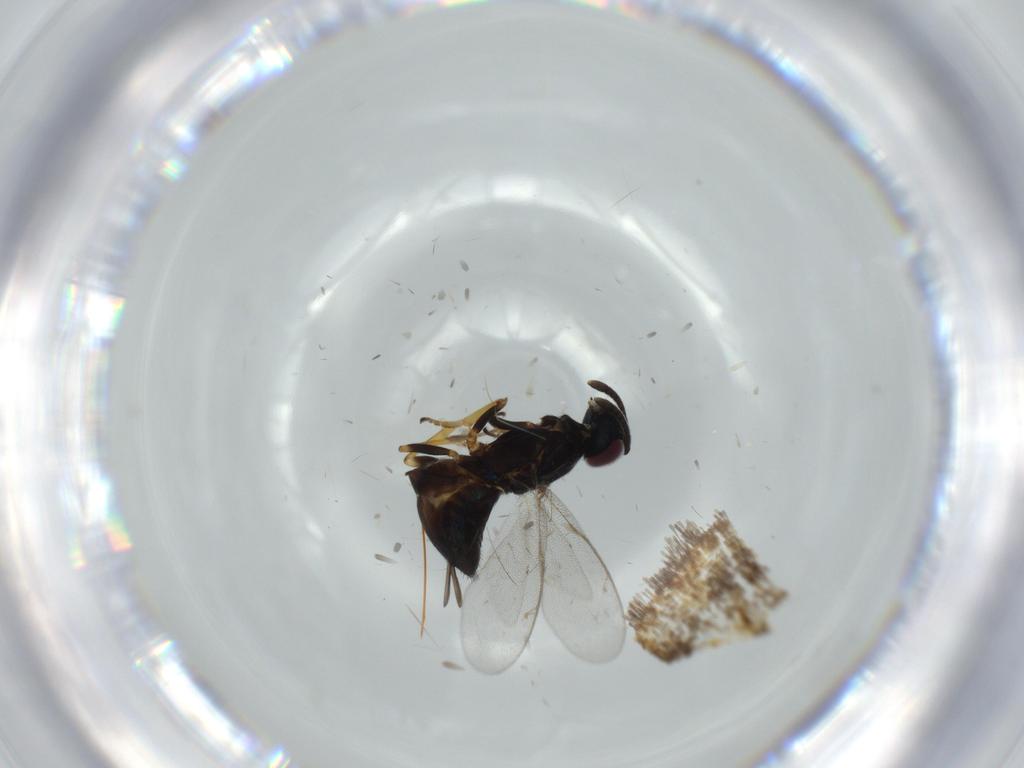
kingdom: Animalia
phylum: Arthropoda
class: Insecta
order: Hymenoptera
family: Eupelmidae
